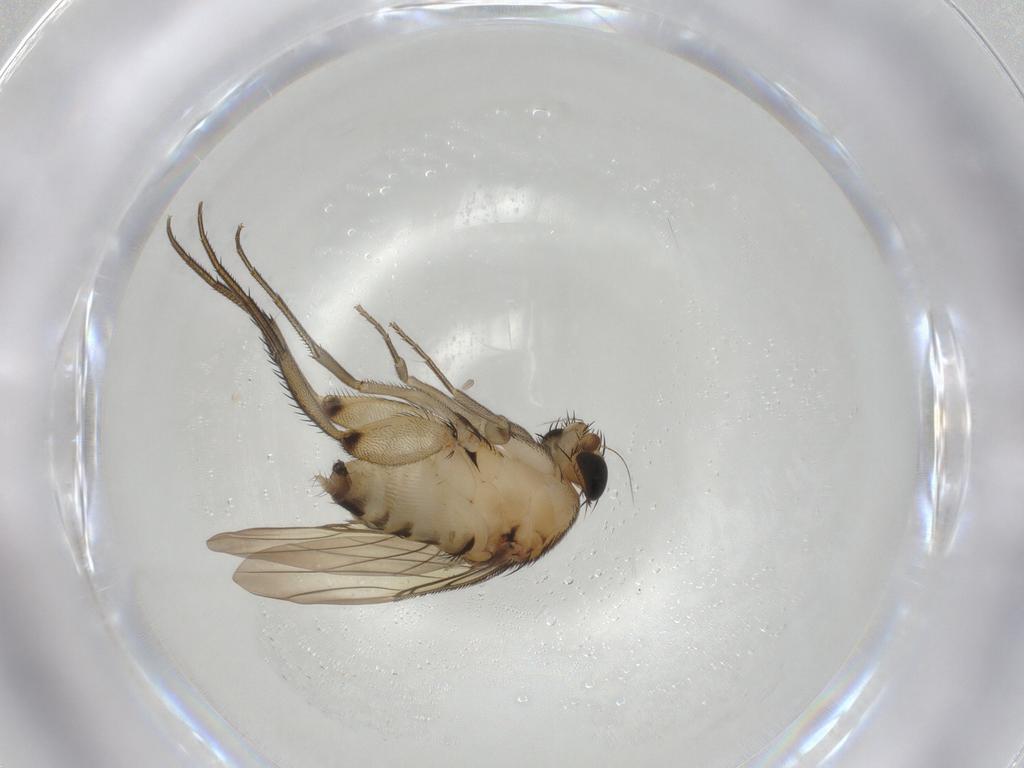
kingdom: Animalia
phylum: Arthropoda
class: Insecta
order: Diptera
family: Phoridae
